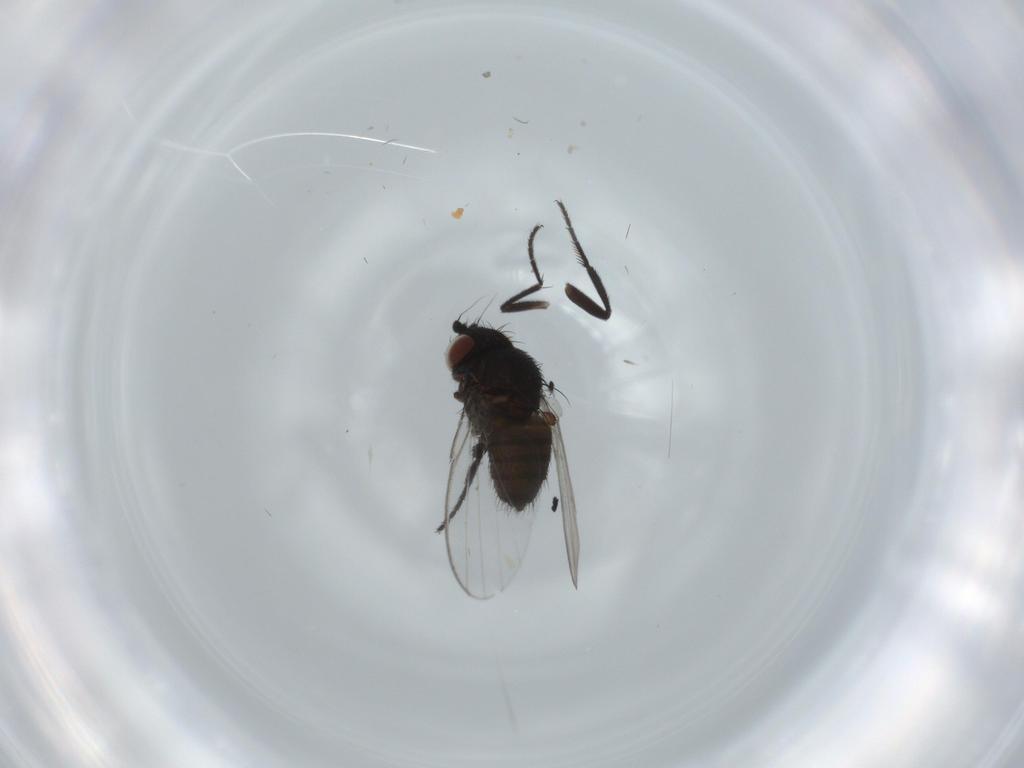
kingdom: Animalia
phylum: Arthropoda
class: Insecta
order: Diptera
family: Milichiidae
